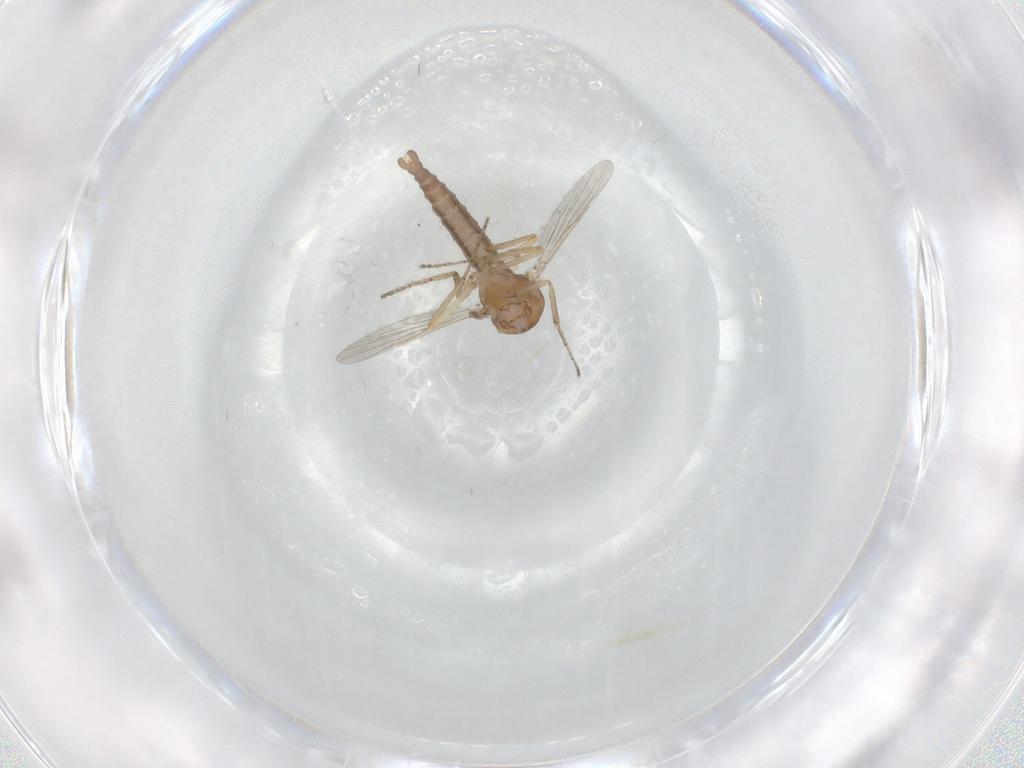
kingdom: Animalia
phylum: Arthropoda
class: Insecta
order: Diptera
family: Ceratopogonidae
